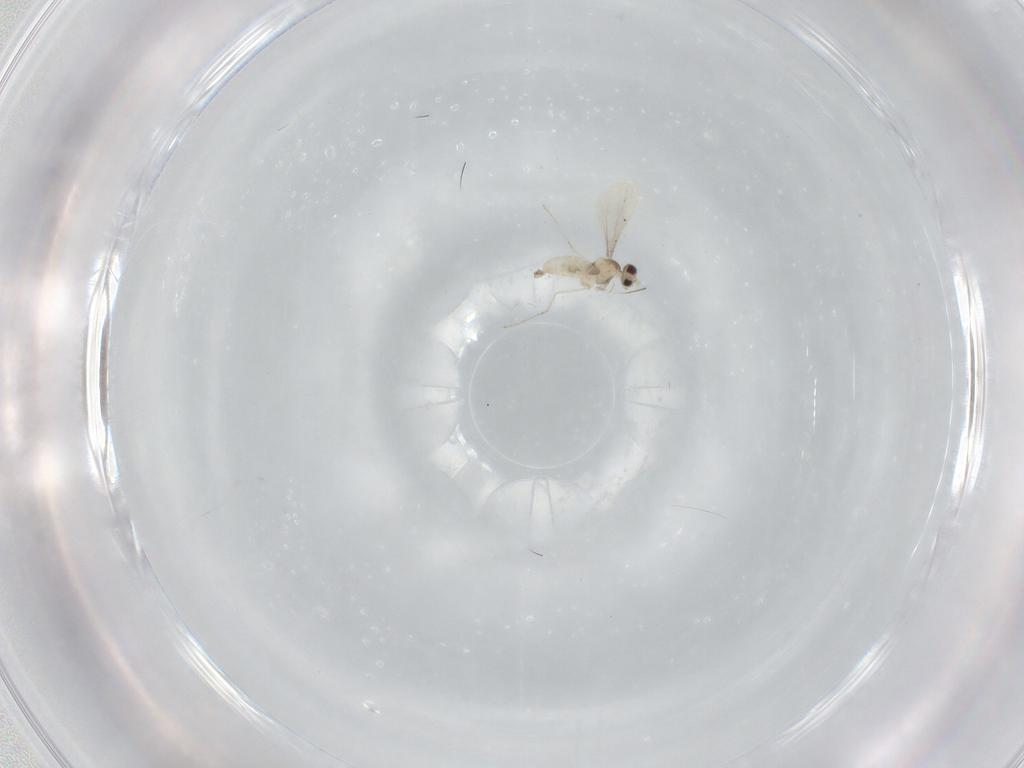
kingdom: Animalia
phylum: Arthropoda
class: Insecta
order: Diptera
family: Cecidomyiidae
